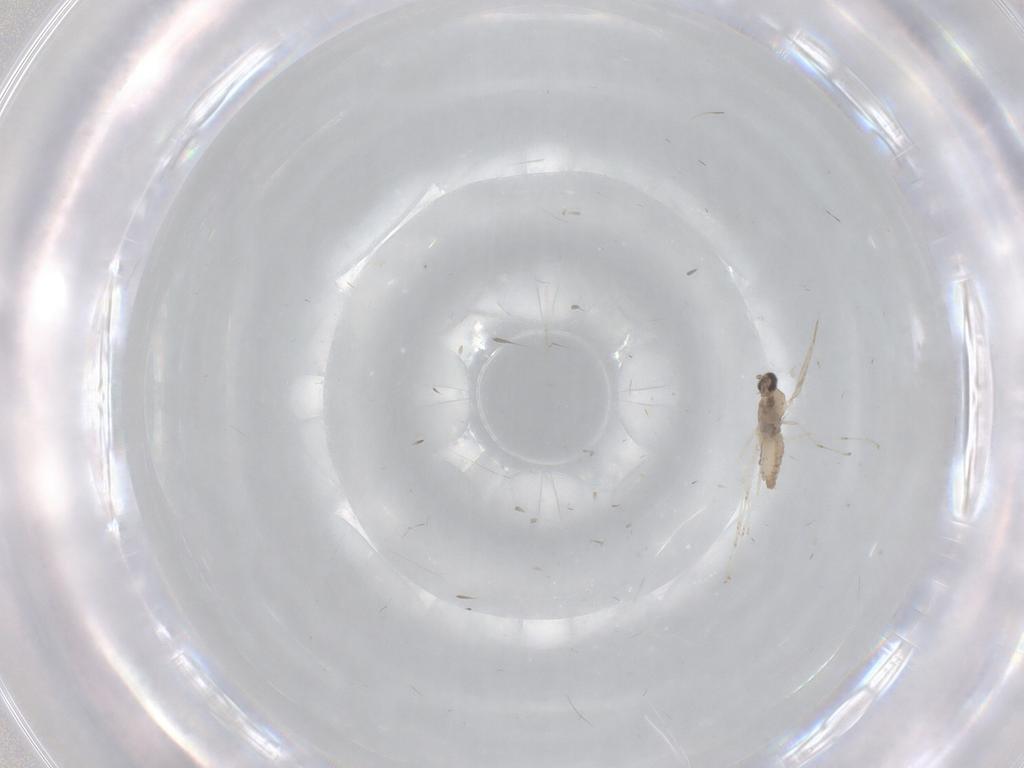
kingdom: Animalia
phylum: Arthropoda
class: Insecta
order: Diptera
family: Cecidomyiidae
